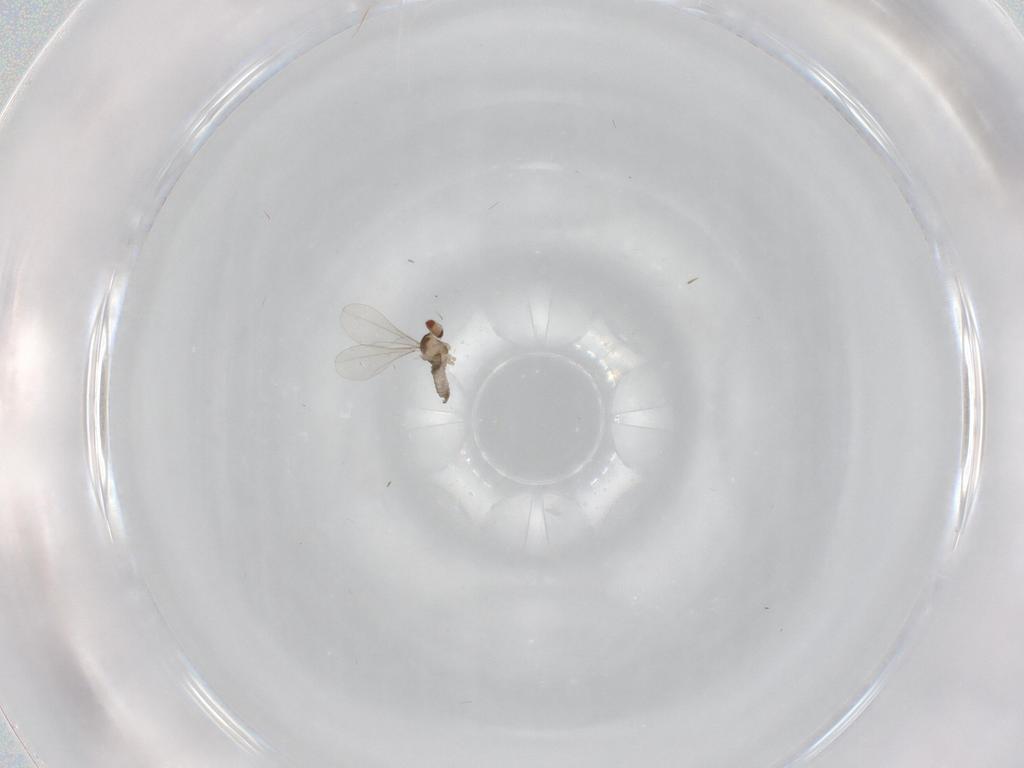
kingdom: Animalia
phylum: Arthropoda
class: Insecta
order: Diptera
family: Cecidomyiidae
